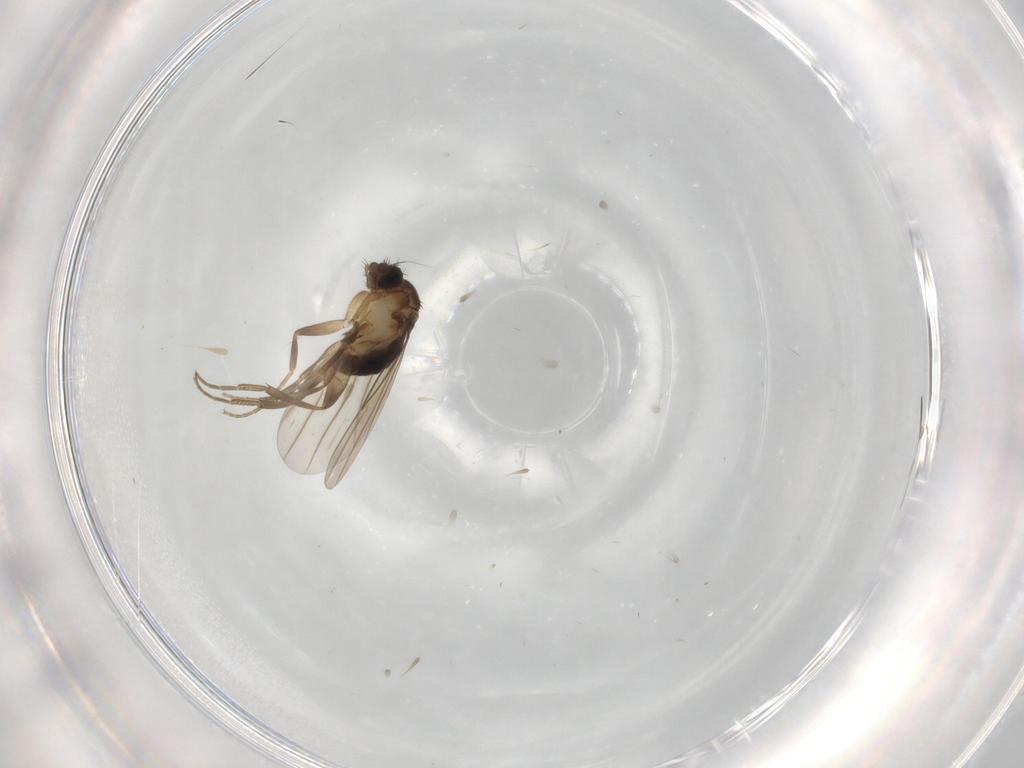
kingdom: Animalia
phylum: Arthropoda
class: Insecta
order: Diptera
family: Phoridae
